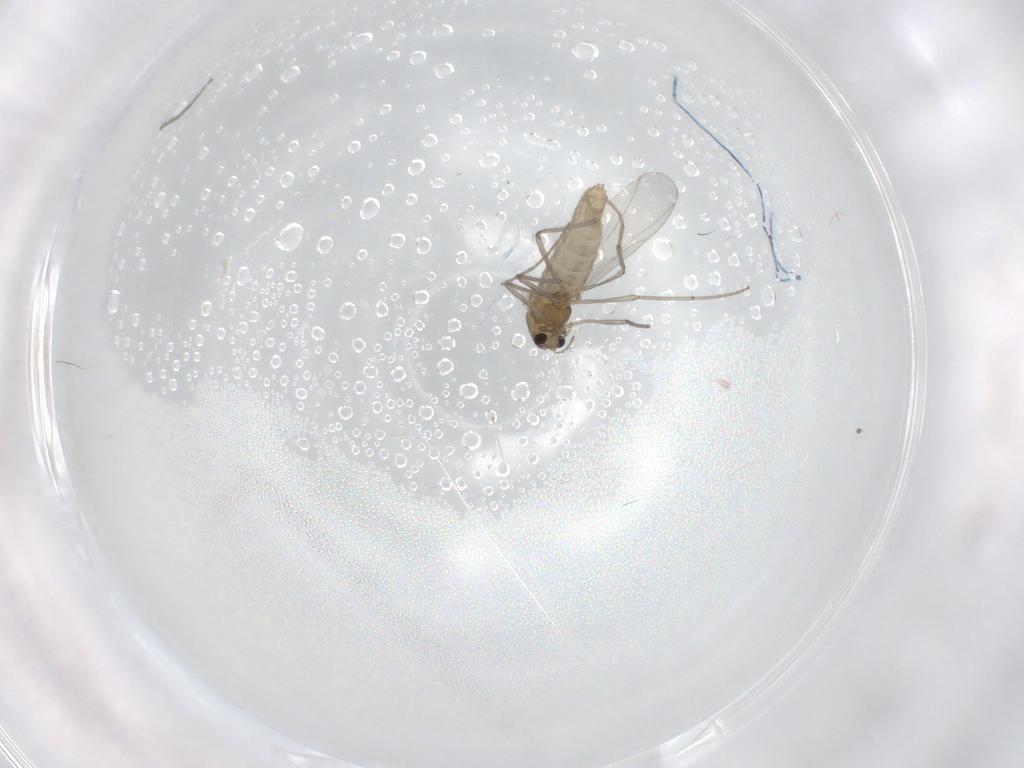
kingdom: Animalia
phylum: Arthropoda
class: Insecta
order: Diptera
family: Chironomidae
